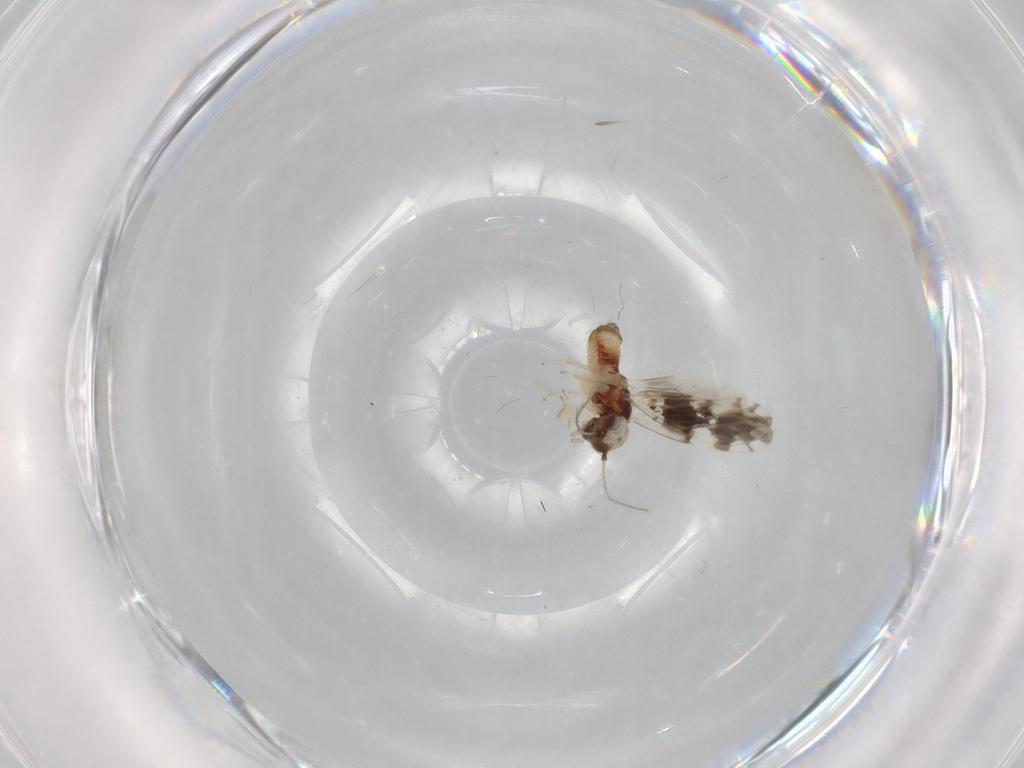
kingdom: Animalia
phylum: Arthropoda
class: Insecta
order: Psocodea
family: Ectopsocidae
